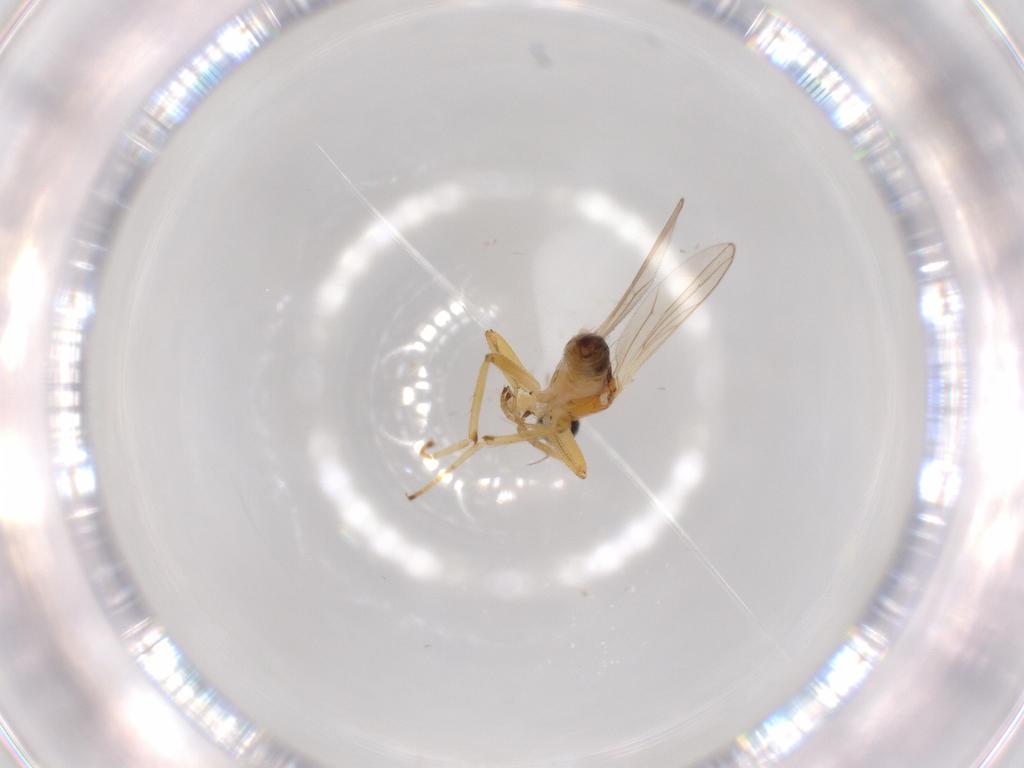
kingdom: Animalia
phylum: Arthropoda
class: Insecta
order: Diptera
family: Hybotidae
